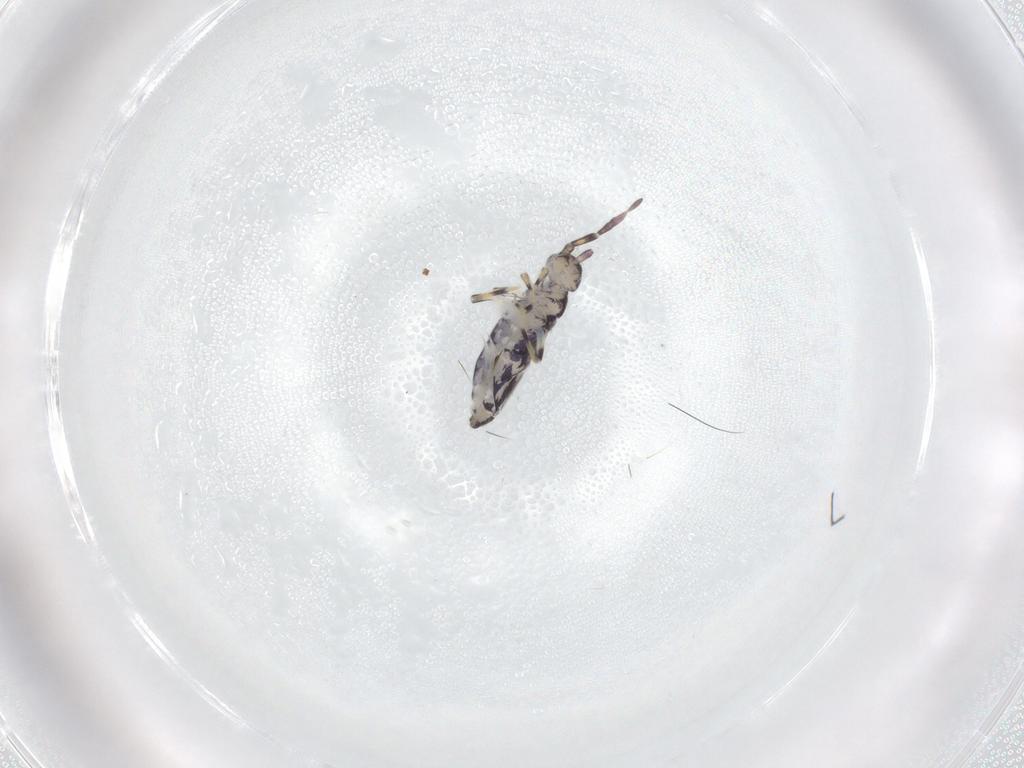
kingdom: Animalia
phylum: Arthropoda
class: Collembola
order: Entomobryomorpha
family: Entomobryidae
